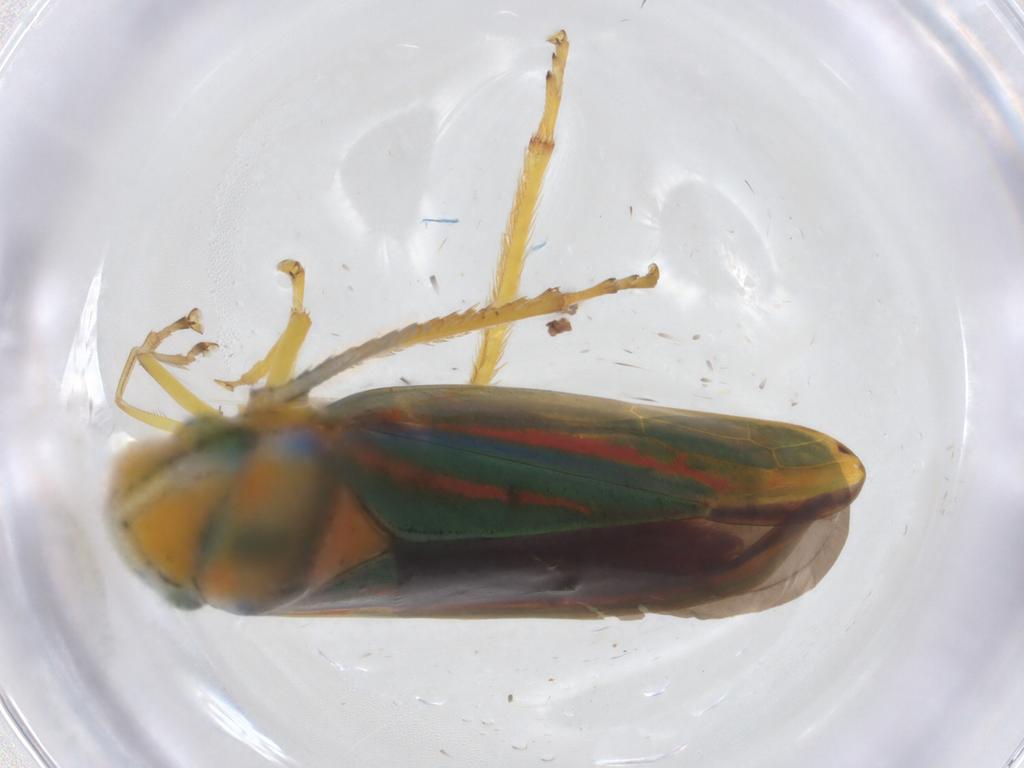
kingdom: Animalia
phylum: Arthropoda
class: Insecta
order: Hemiptera
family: Cicadellidae
